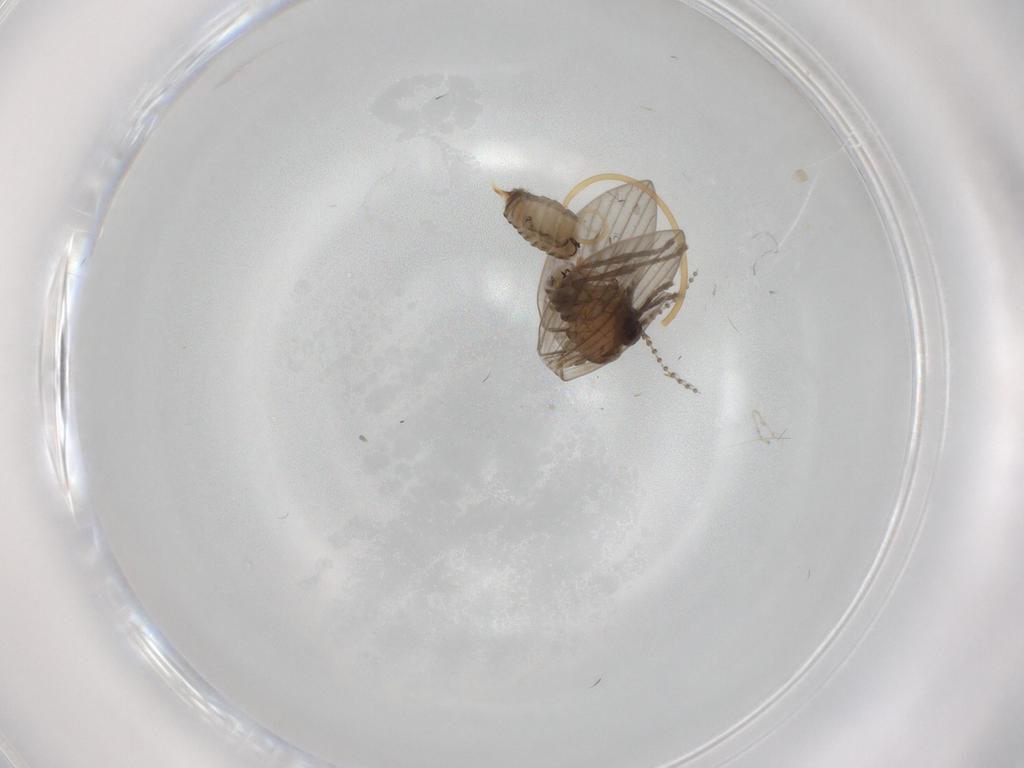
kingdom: Animalia
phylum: Arthropoda
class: Insecta
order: Diptera
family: Psychodidae
